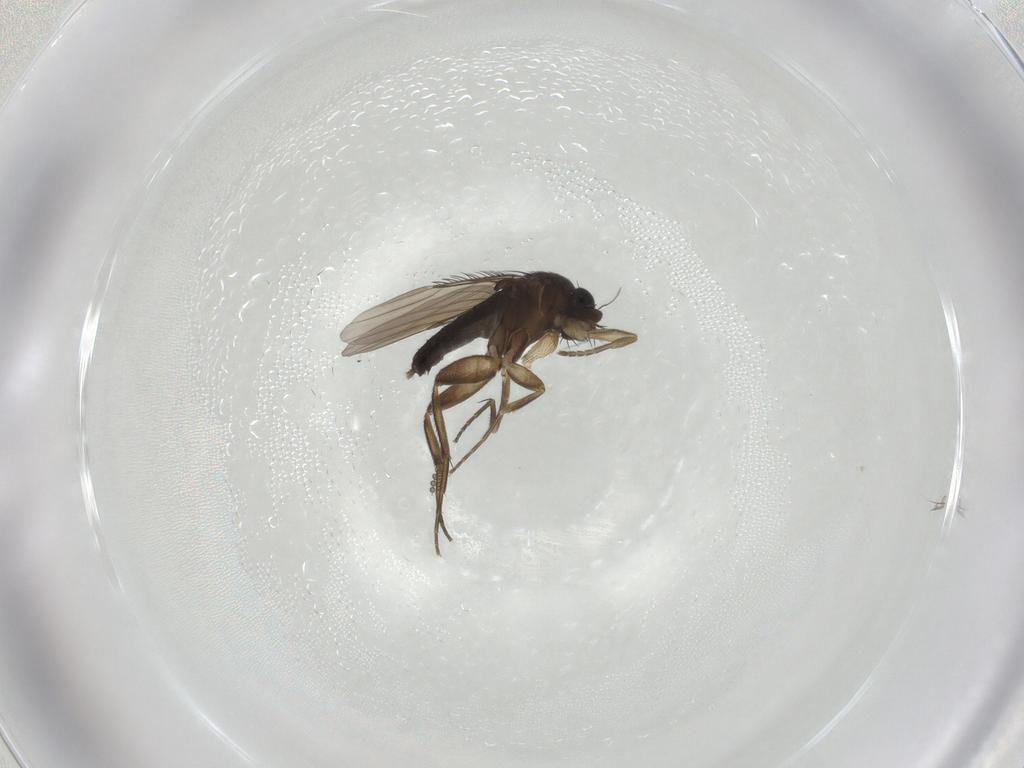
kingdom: Animalia
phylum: Arthropoda
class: Insecta
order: Diptera
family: Phoridae
